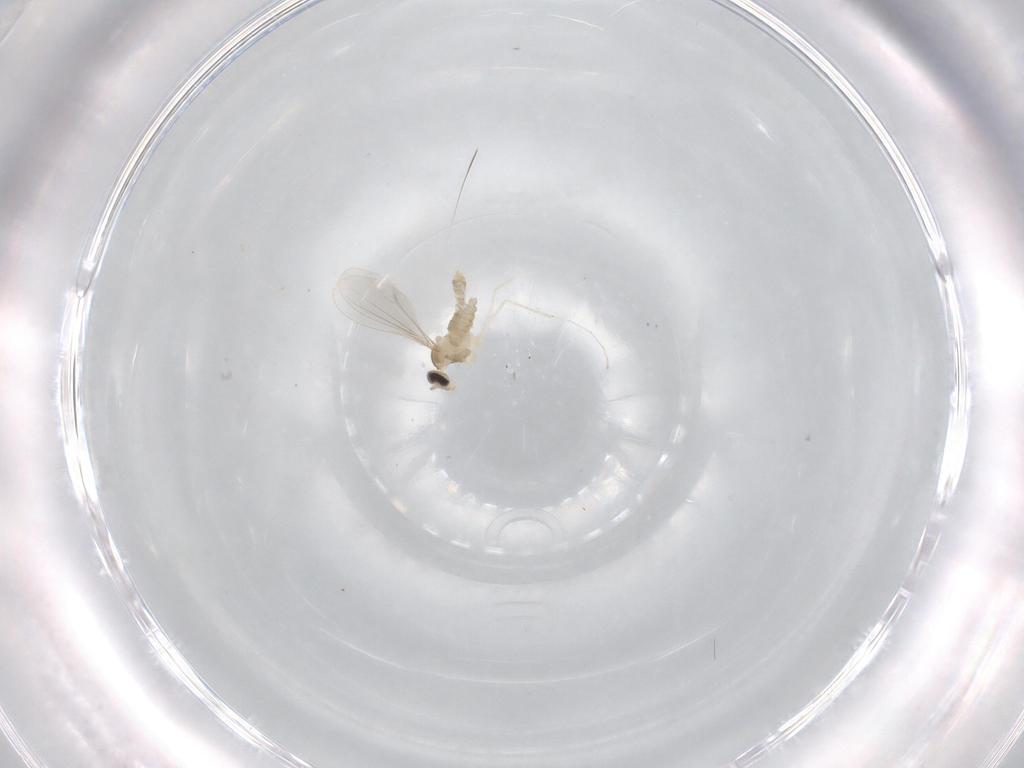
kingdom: Animalia
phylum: Arthropoda
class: Insecta
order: Diptera
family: Cecidomyiidae
